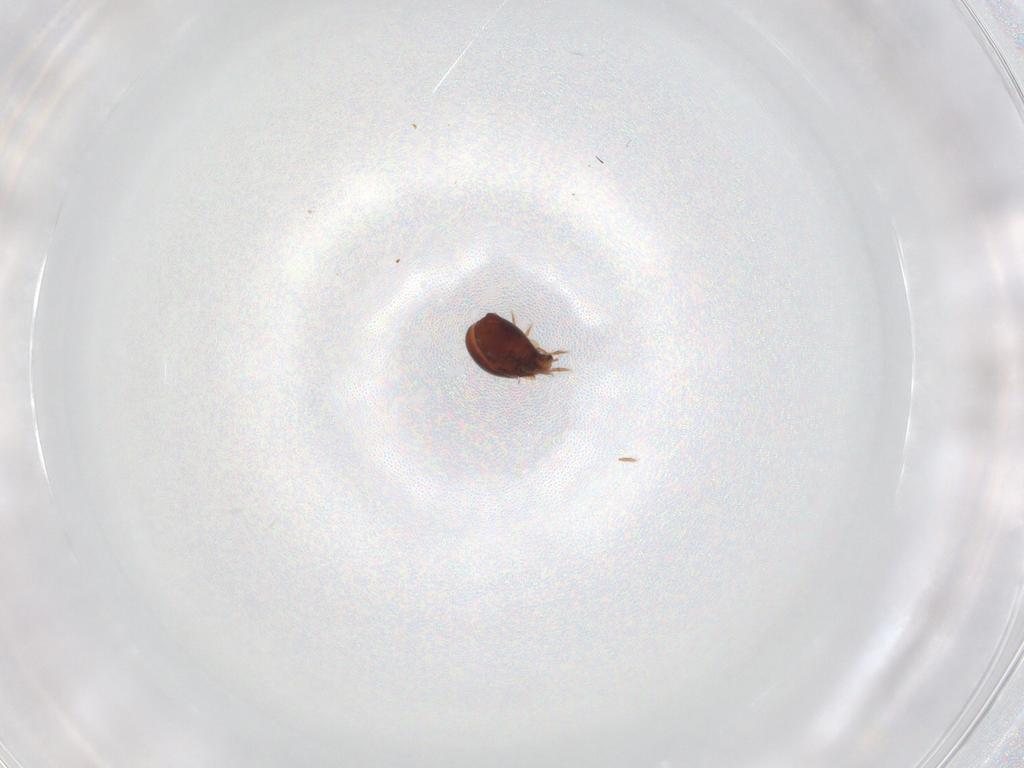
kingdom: Animalia
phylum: Arthropoda
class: Arachnida
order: Sarcoptiformes
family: Ceratozetidae
